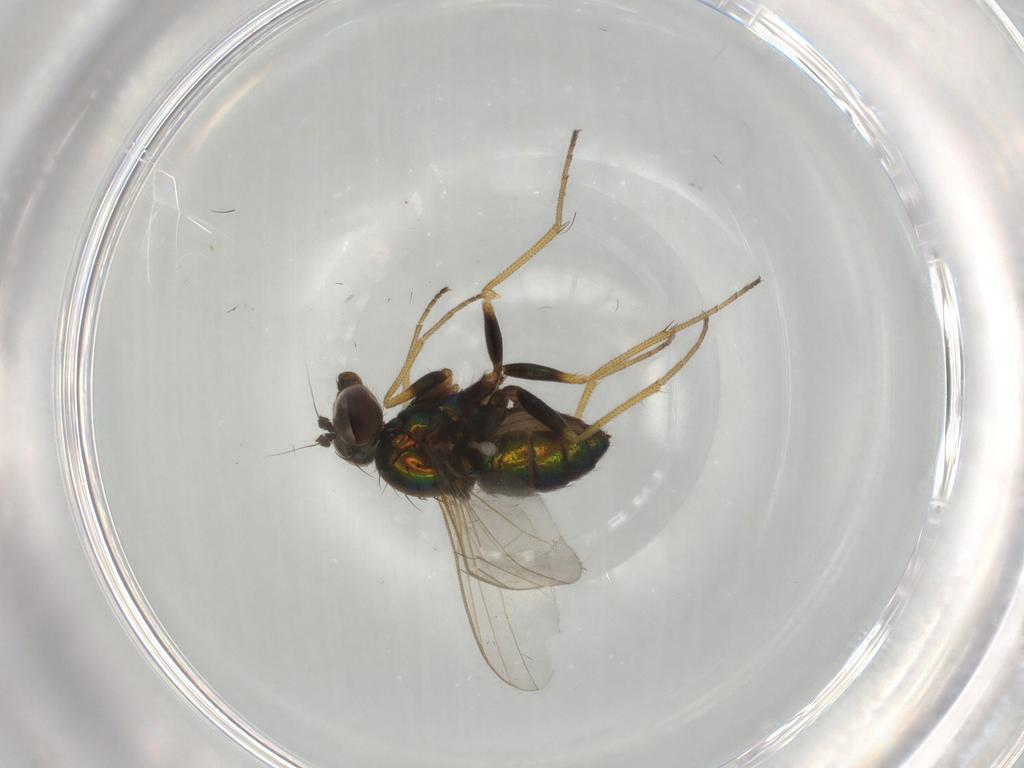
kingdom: Animalia
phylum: Arthropoda
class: Insecta
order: Diptera
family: Dolichopodidae
